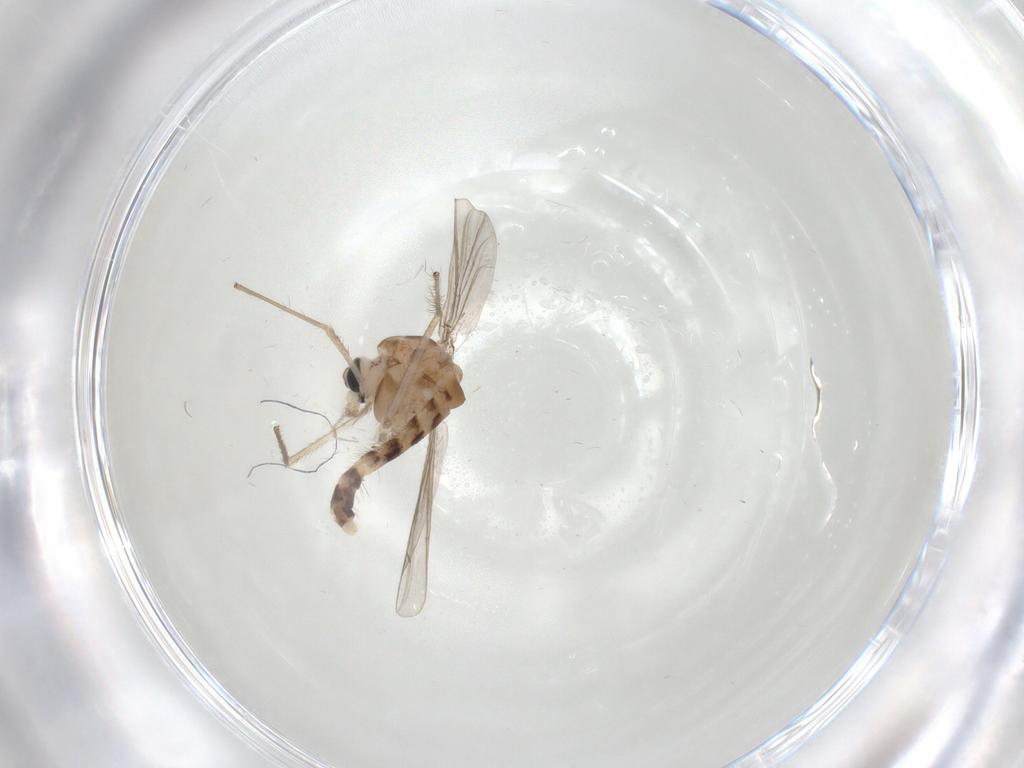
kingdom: Animalia
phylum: Arthropoda
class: Insecta
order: Diptera
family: Chironomidae
